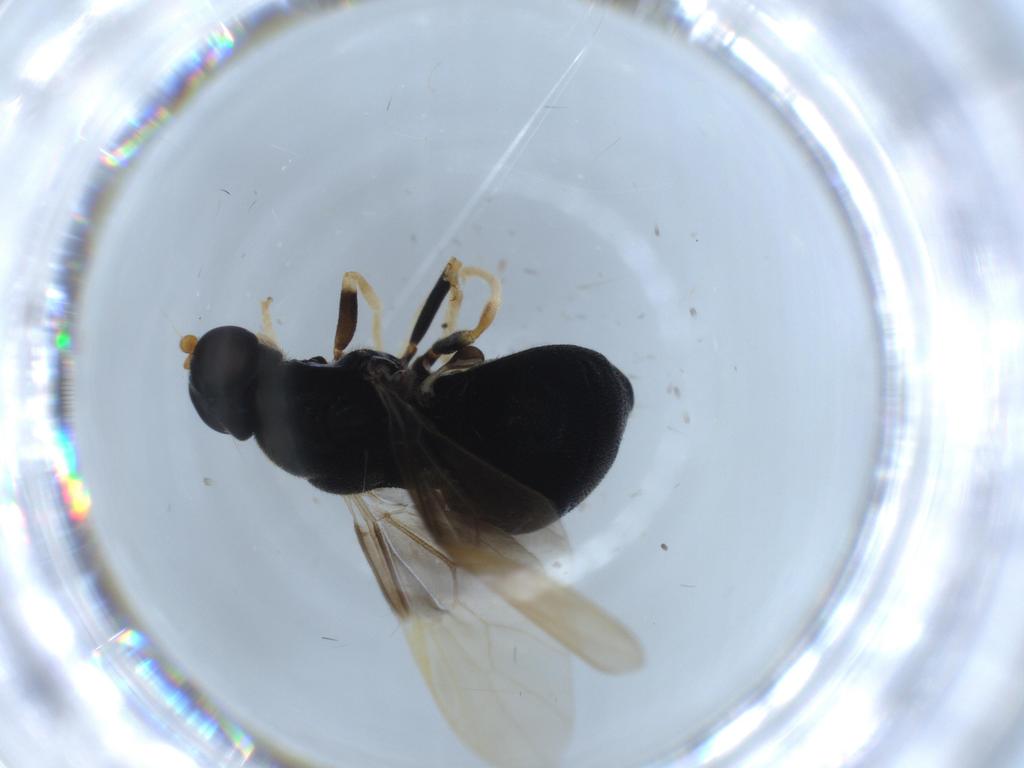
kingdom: Animalia
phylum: Arthropoda
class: Insecta
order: Diptera
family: Stratiomyidae
